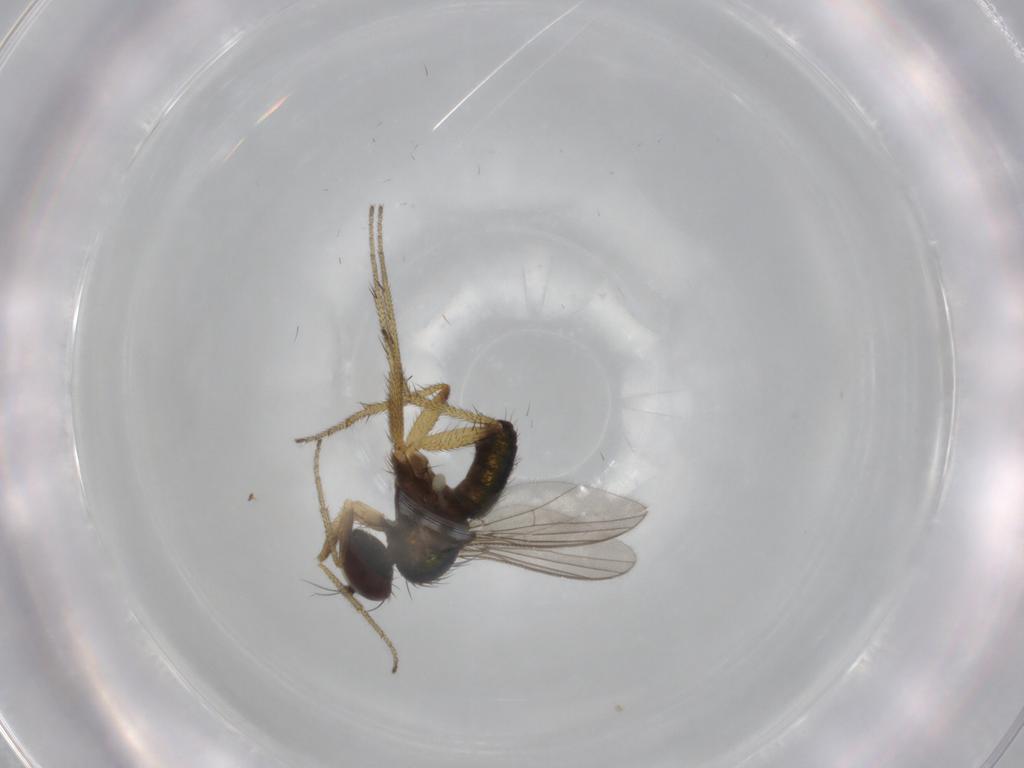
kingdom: Animalia
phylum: Arthropoda
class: Insecta
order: Diptera
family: Dolichopodidae
